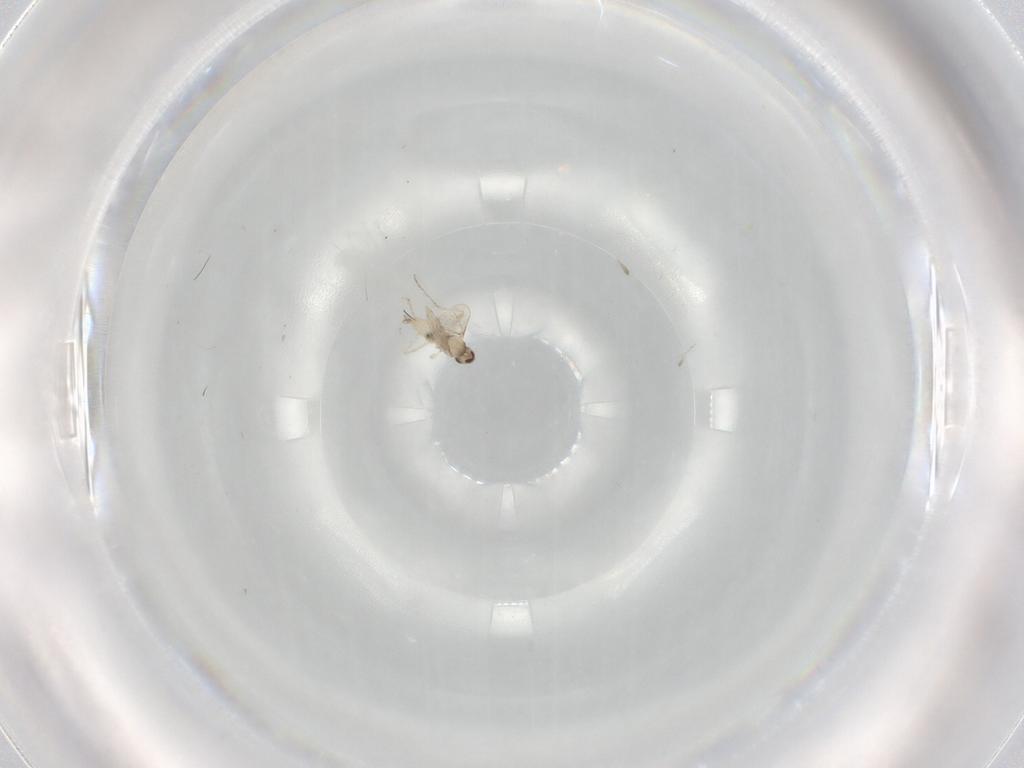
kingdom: Animalia
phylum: Arthropoda
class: Insecta
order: Diptera
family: Cecidomyiidae
